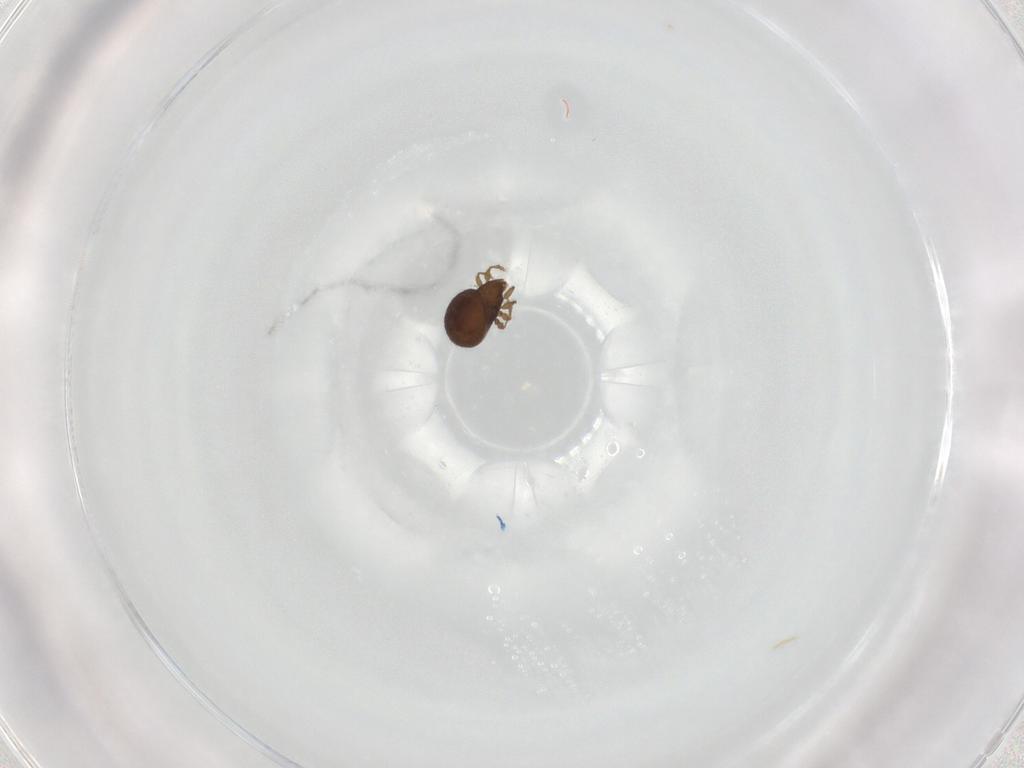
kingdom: Animalia
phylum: Arthropoda
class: Arachnida
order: Sarcoptiformes
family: Oribatulidae
